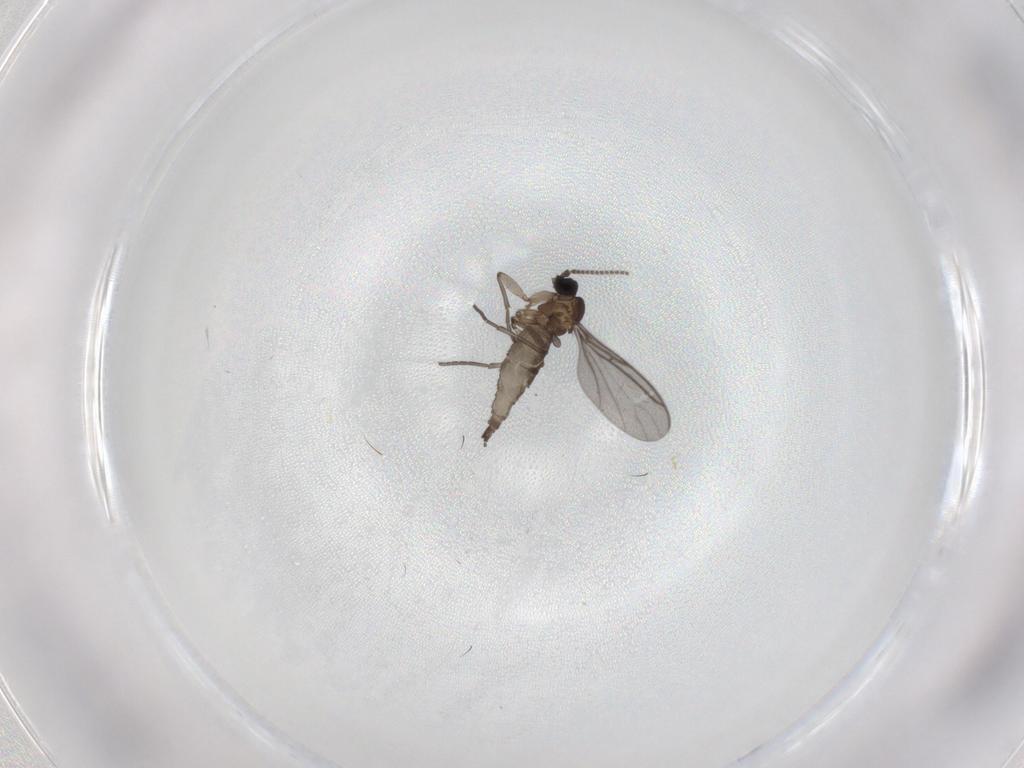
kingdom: Animalia
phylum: Arthropoda
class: Insecta
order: Diptera
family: Sciaridae
